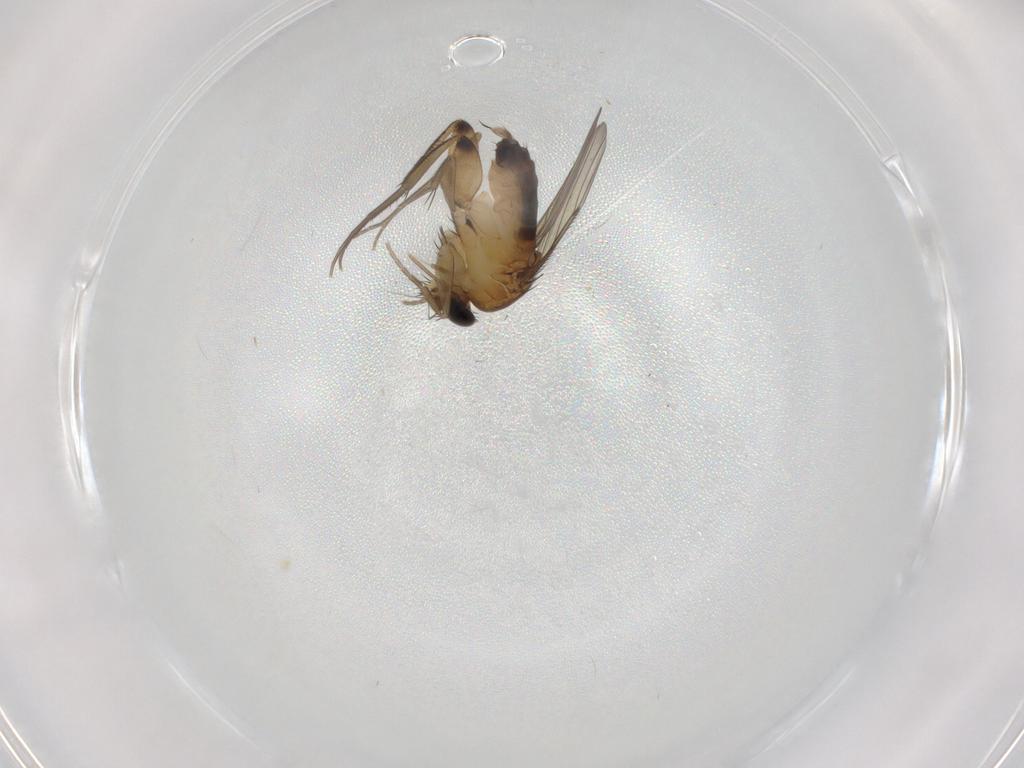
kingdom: Animalia
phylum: Arthropoda
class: Insecta
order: Diptera
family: Phoridae
